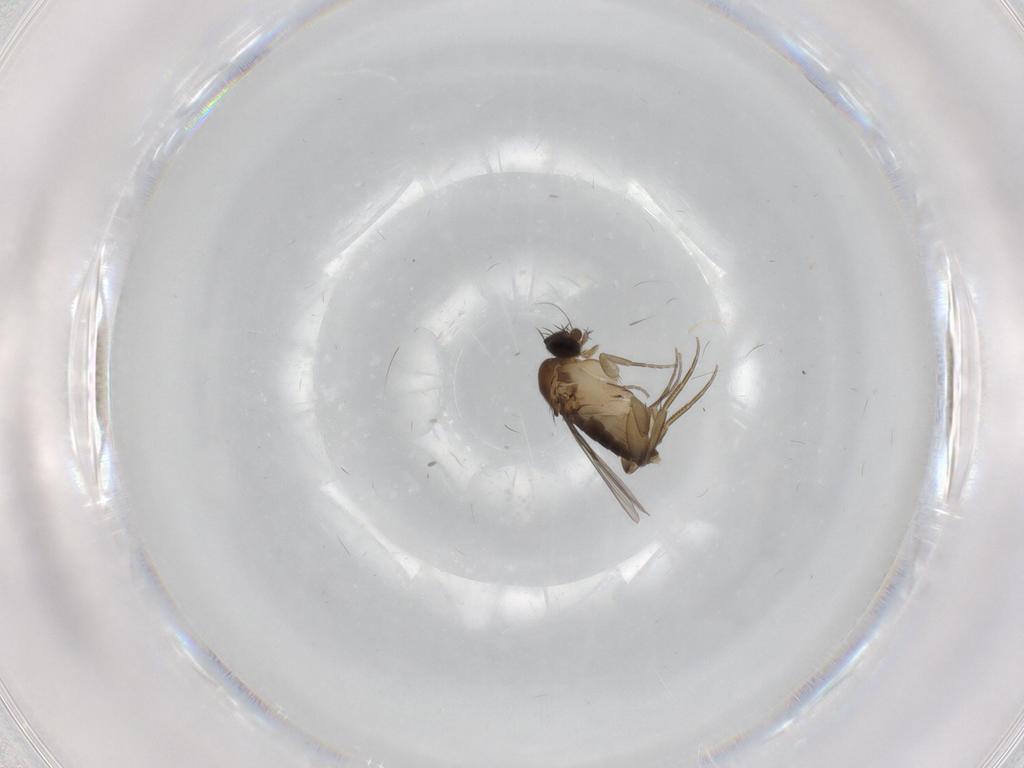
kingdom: Animalia
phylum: Arthropoda
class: Insecta
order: Diptera
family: Phoridae
